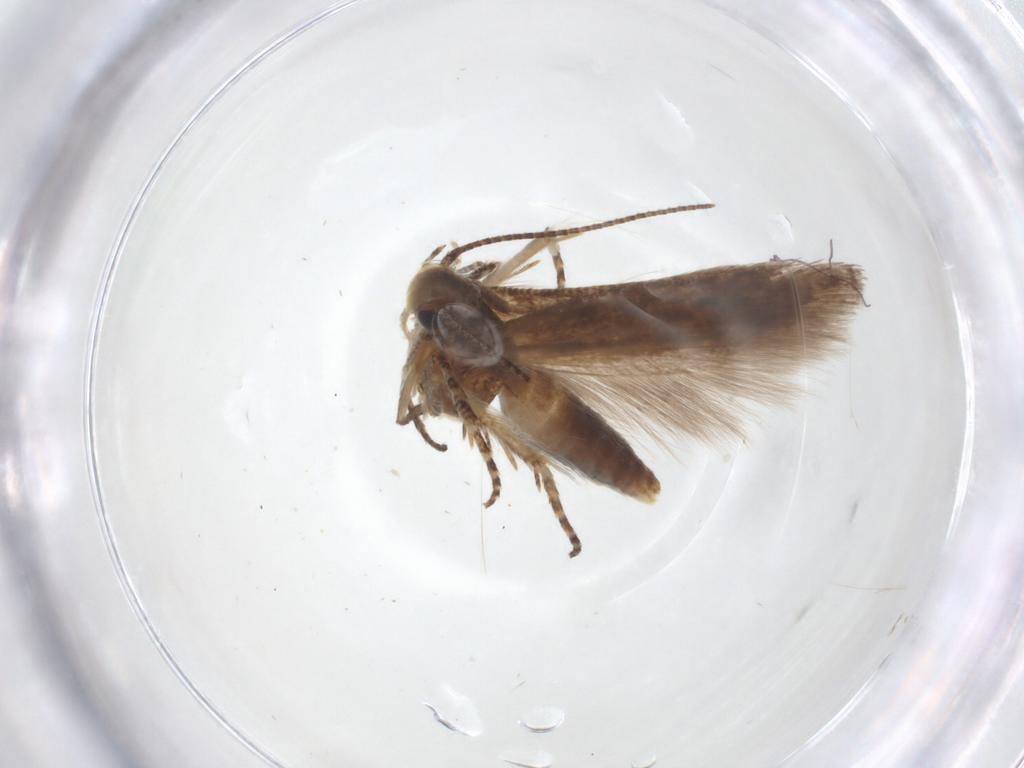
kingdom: Animalia
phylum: Arthropoda
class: Insecta
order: Lepidoptera
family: Gelechiidae
